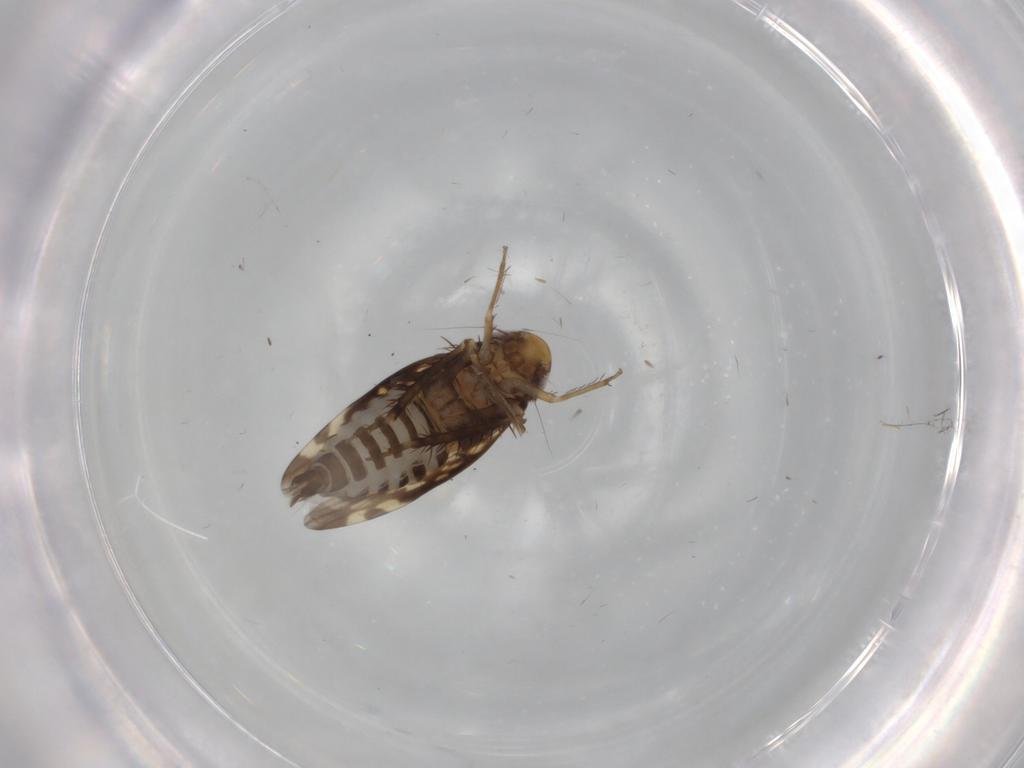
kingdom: Animalia
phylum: Arthropoda
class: Insecta
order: Hemiptera
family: Cicadellidae
